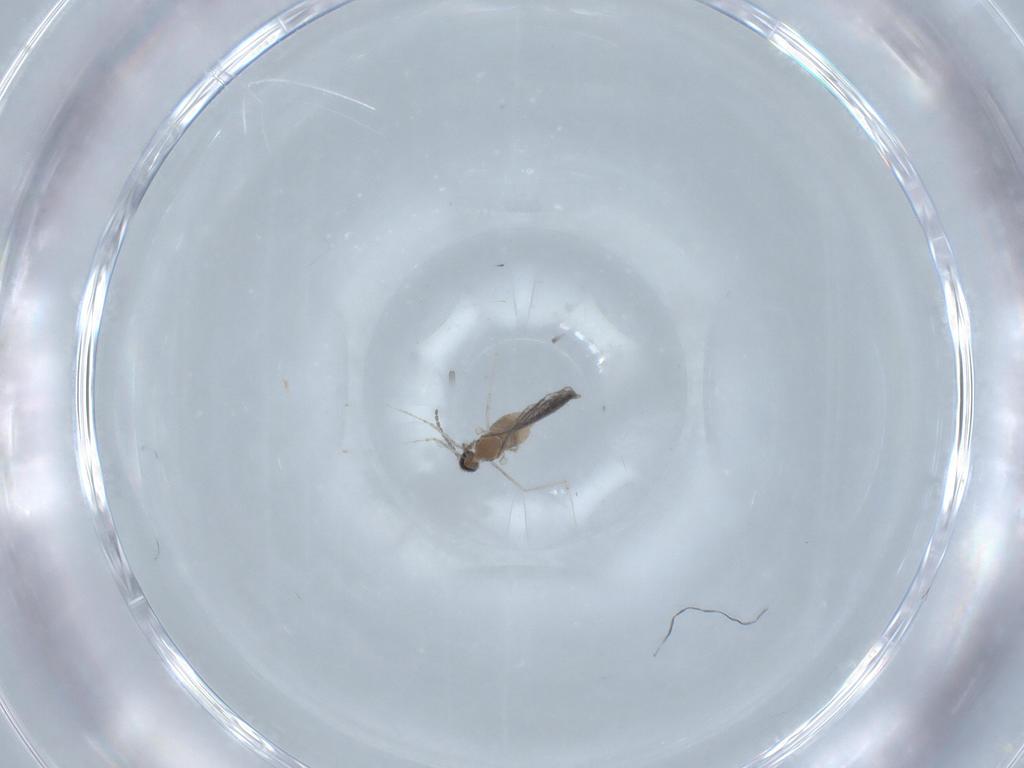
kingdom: Animalia
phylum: Arthropoda
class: Insecta
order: Diptera
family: Cecidomyiidae
